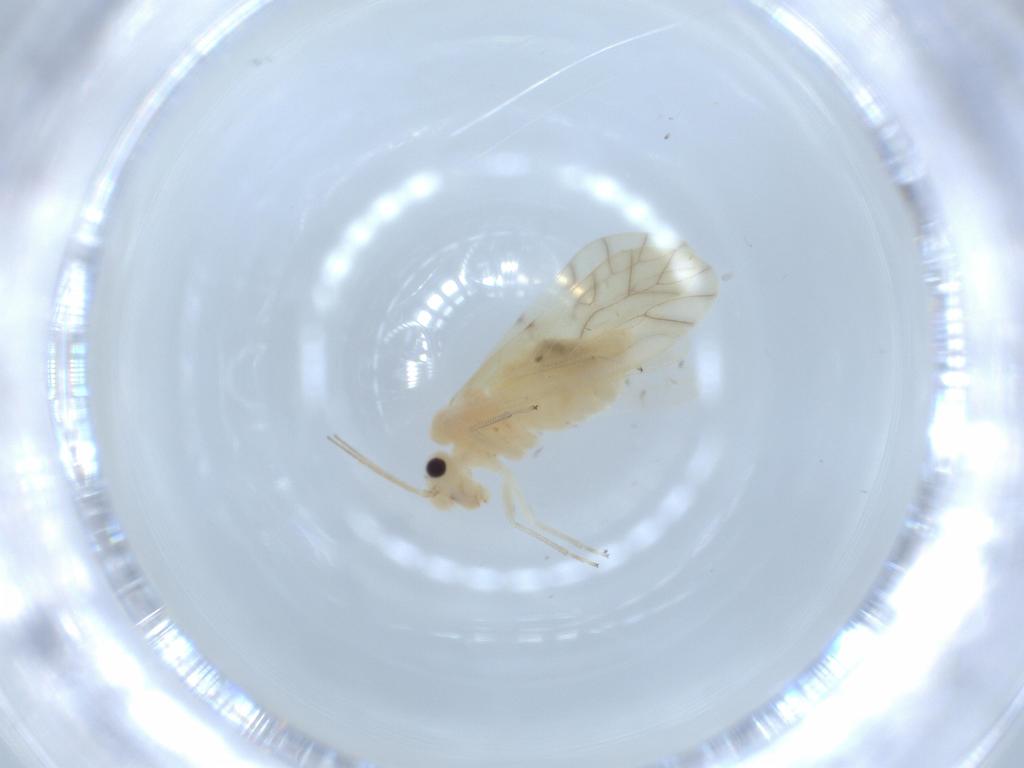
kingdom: Animalia
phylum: Arthropoda
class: Insecta
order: Psocodea
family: Caeciliusidae
